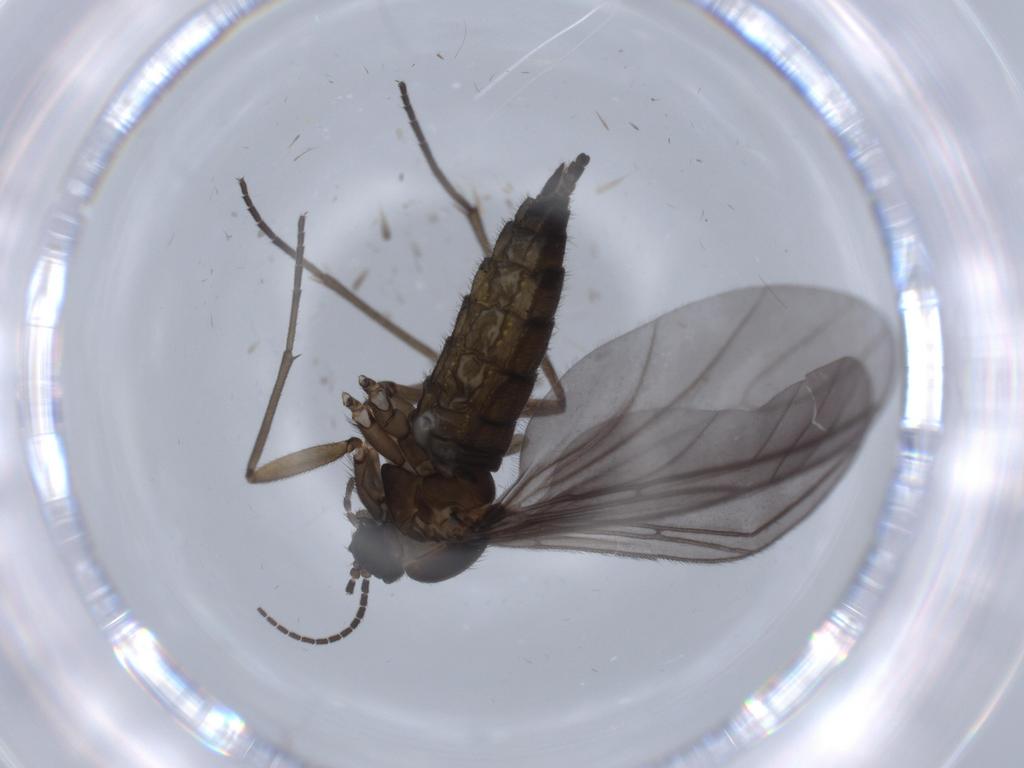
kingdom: Animalia
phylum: Arthropoda
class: Insecta
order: Diptera
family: Sciaridae
